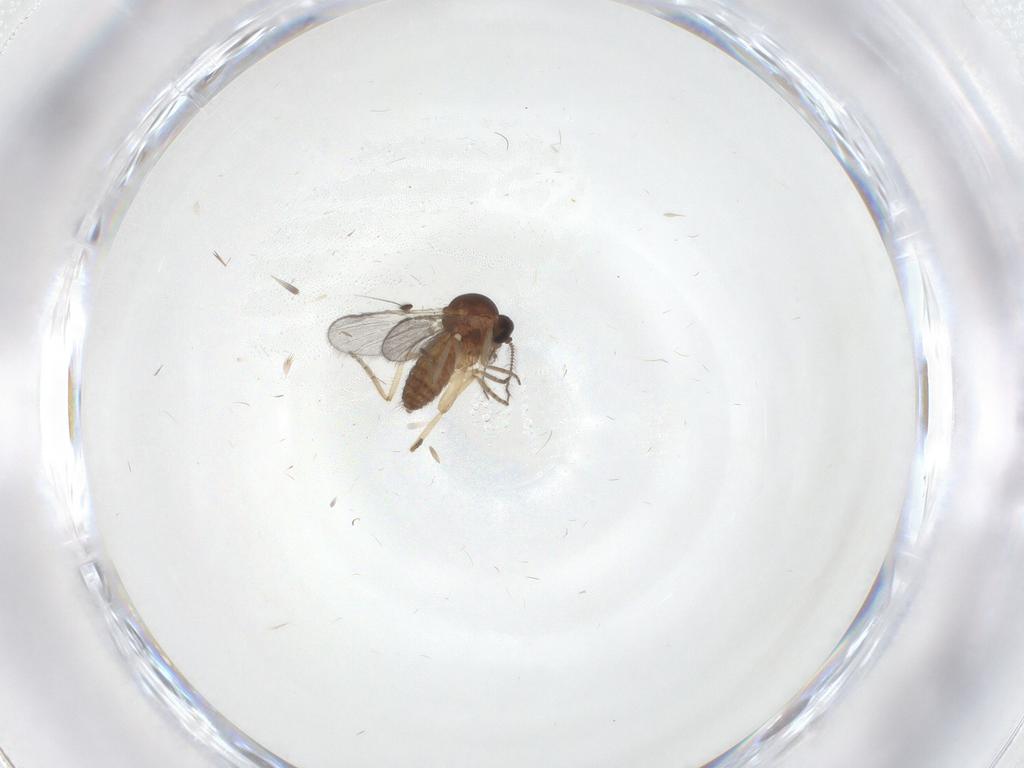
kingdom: Animalia
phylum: Arthropoda
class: Insecta
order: Diptera
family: Ceratopogonidae
